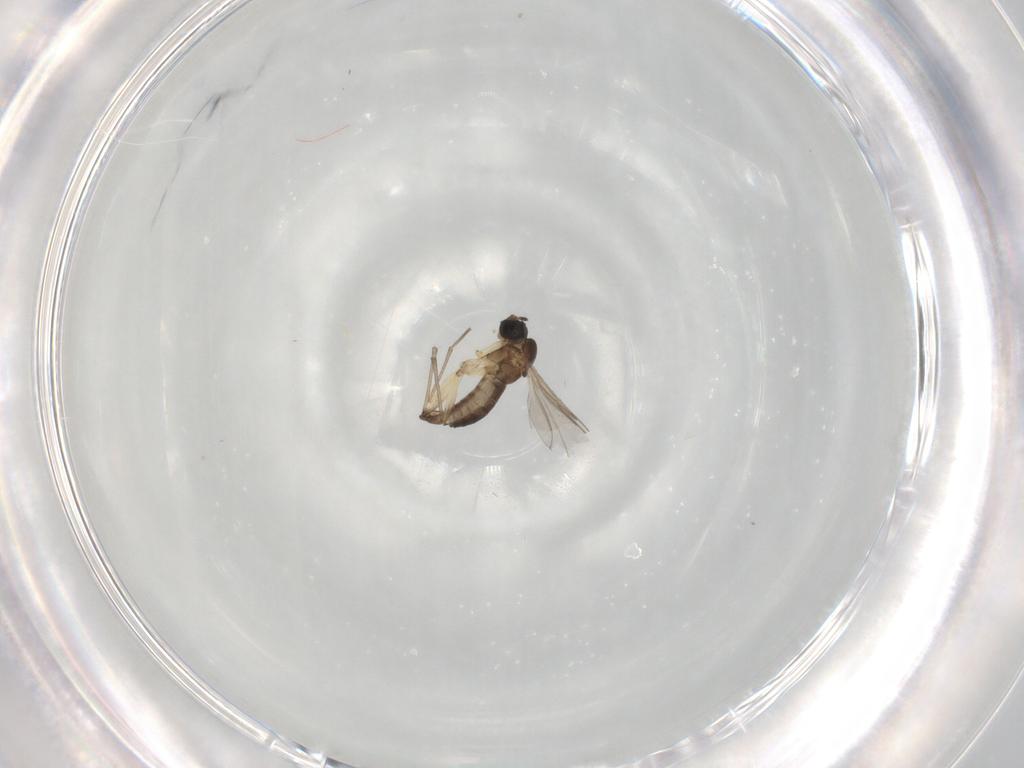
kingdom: Animalia
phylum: Arthropoda
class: Insecta
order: Diptera
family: Sciaridae
